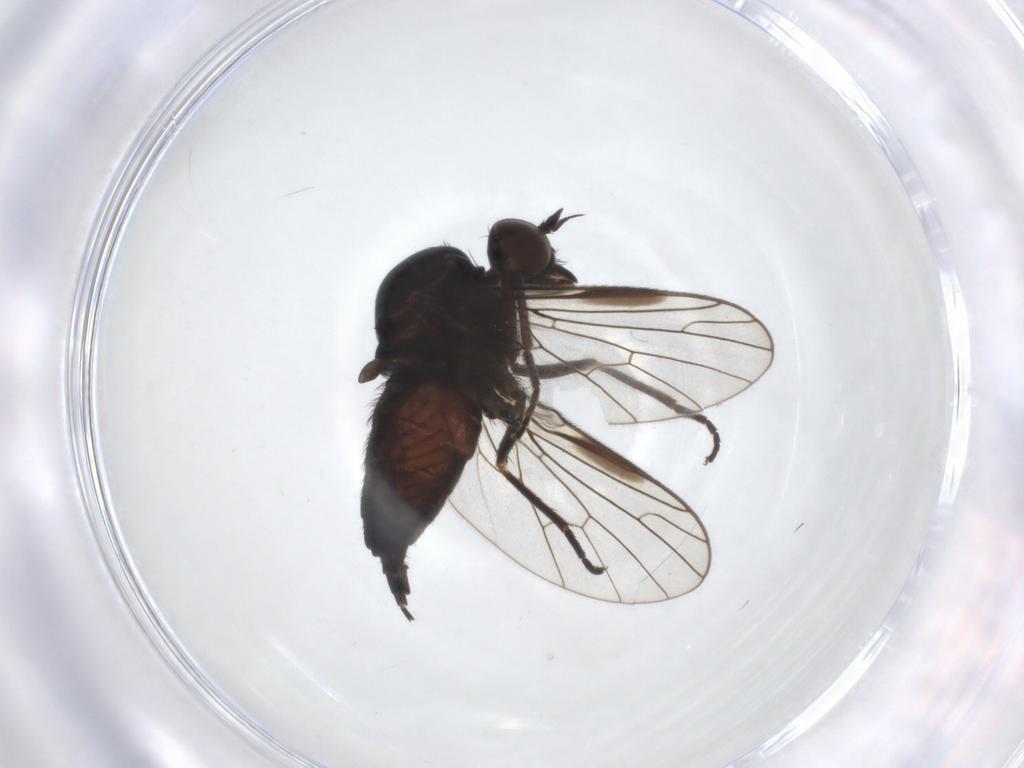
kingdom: Animalia
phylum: Arthropoda
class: Insecta
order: Diptera
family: Empididae
